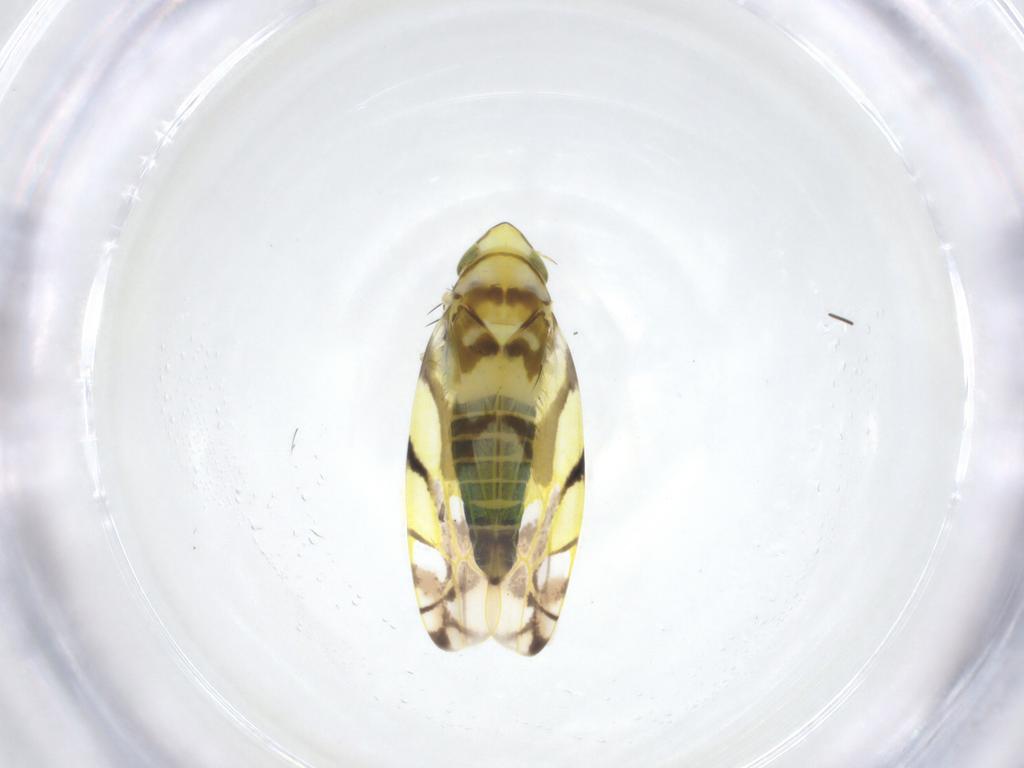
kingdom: Animalia
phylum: Arthropoda
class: Insecta
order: Hemiptera
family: Cicadellidae
